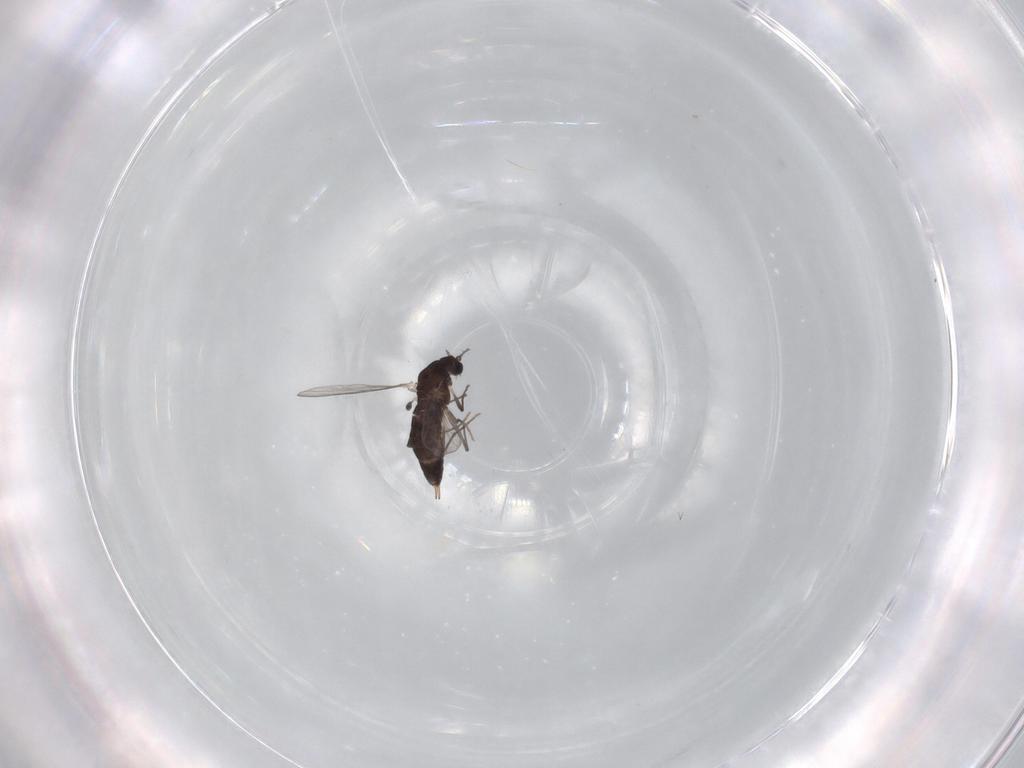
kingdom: Animalia
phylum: Arthropoda
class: Insecta
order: Diptera
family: Chironomidae
